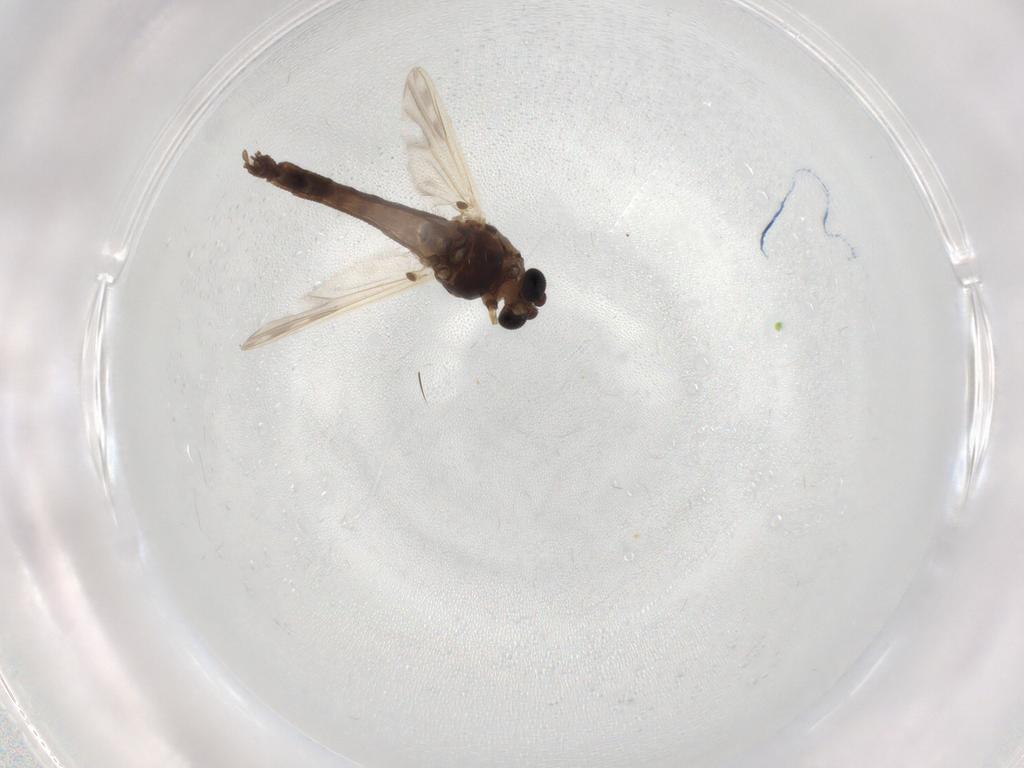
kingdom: Animalia
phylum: Arthropoda
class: Insecta
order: Diptera
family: Chironomidae
